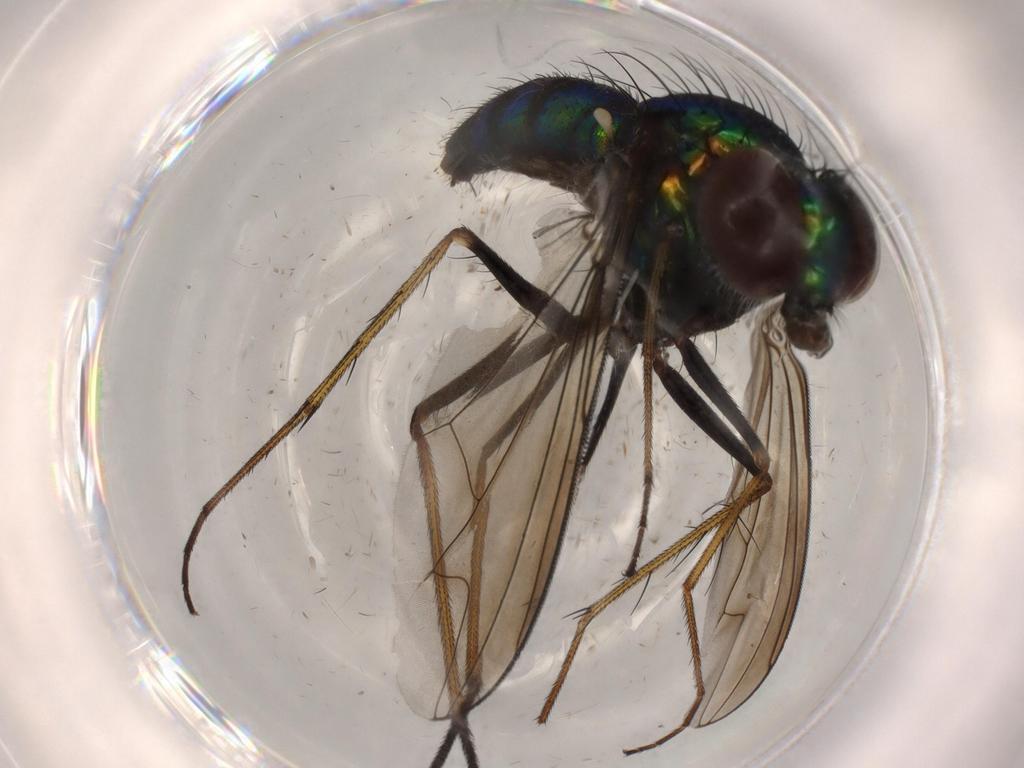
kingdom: Animalia
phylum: Arthropoda
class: Insecta
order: Diptera
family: Dolichopodidae
